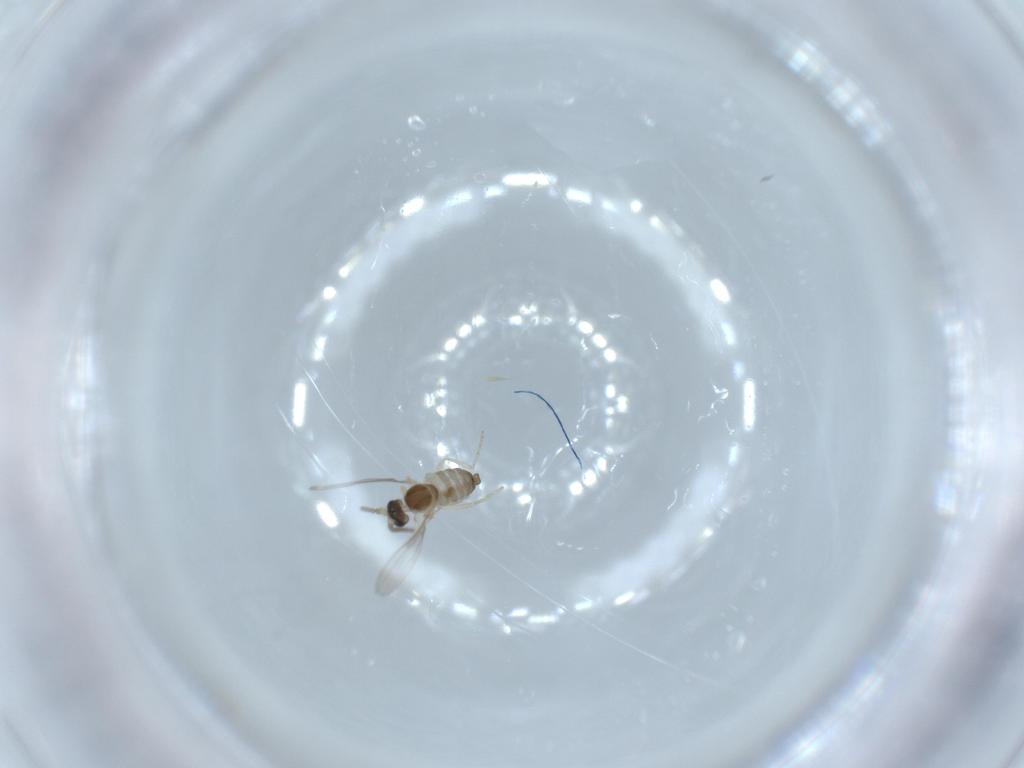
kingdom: Animalia
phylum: Arthropoda
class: Insecta
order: Diptera
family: Cecidomyiidae
